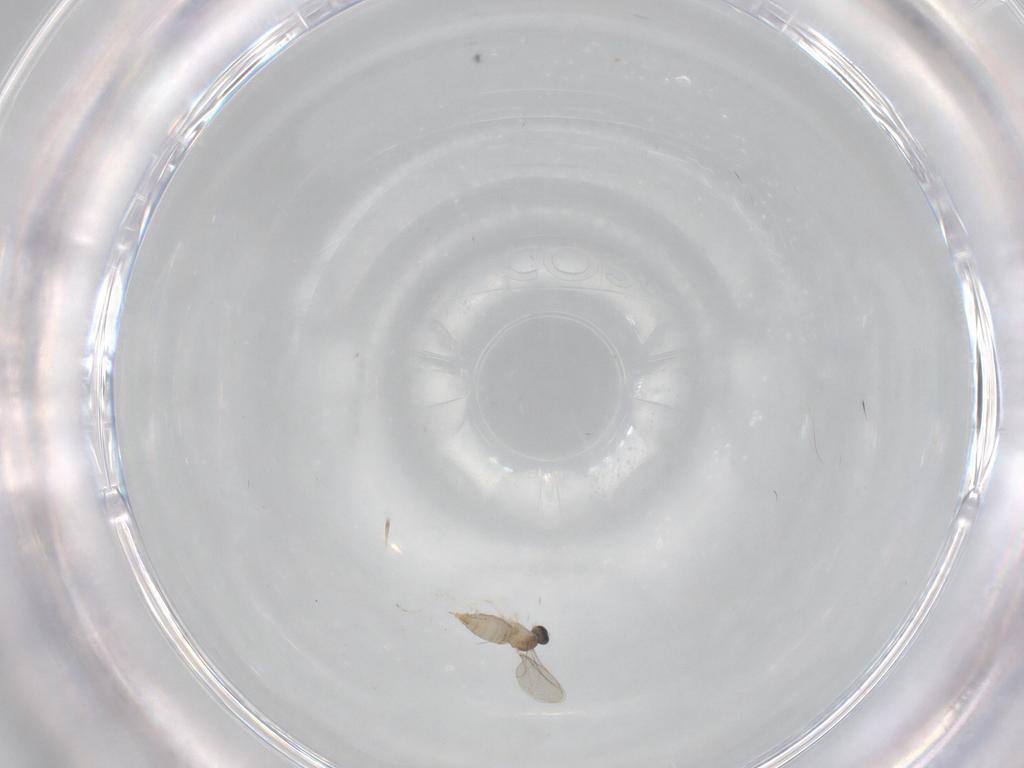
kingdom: Animalia
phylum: Arthropoda
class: Insecta
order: Diptera
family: Cecidomyiidae
